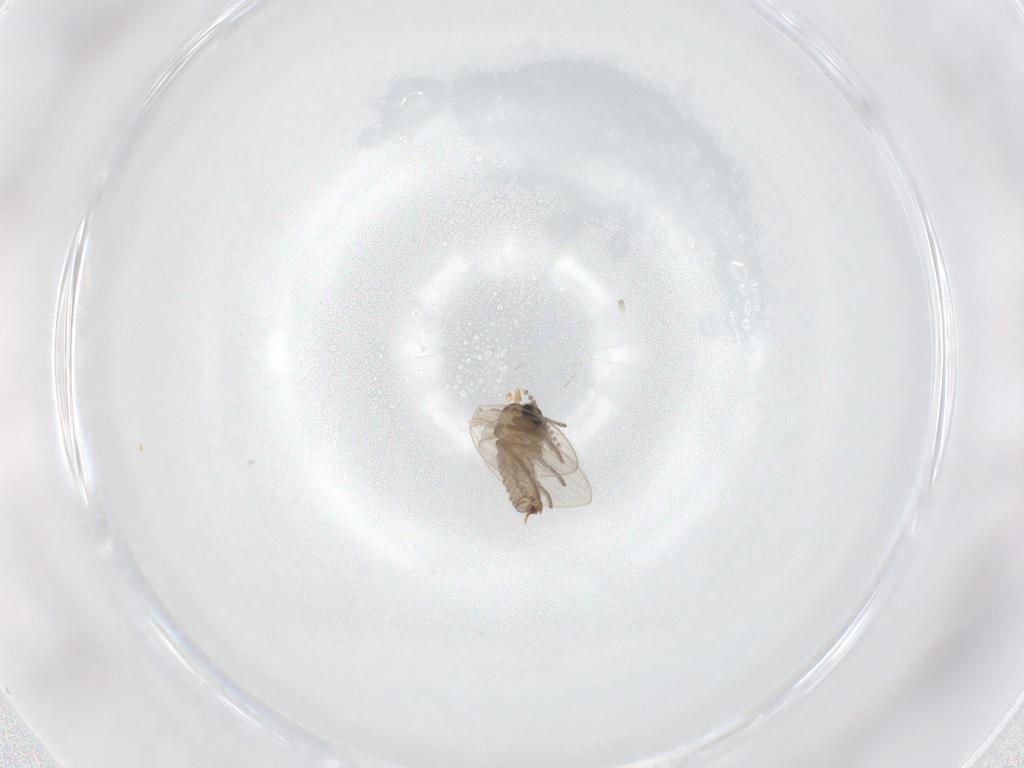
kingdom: Animalia
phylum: Arthropoda
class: Insecta
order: Diptera
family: Psychodidae
